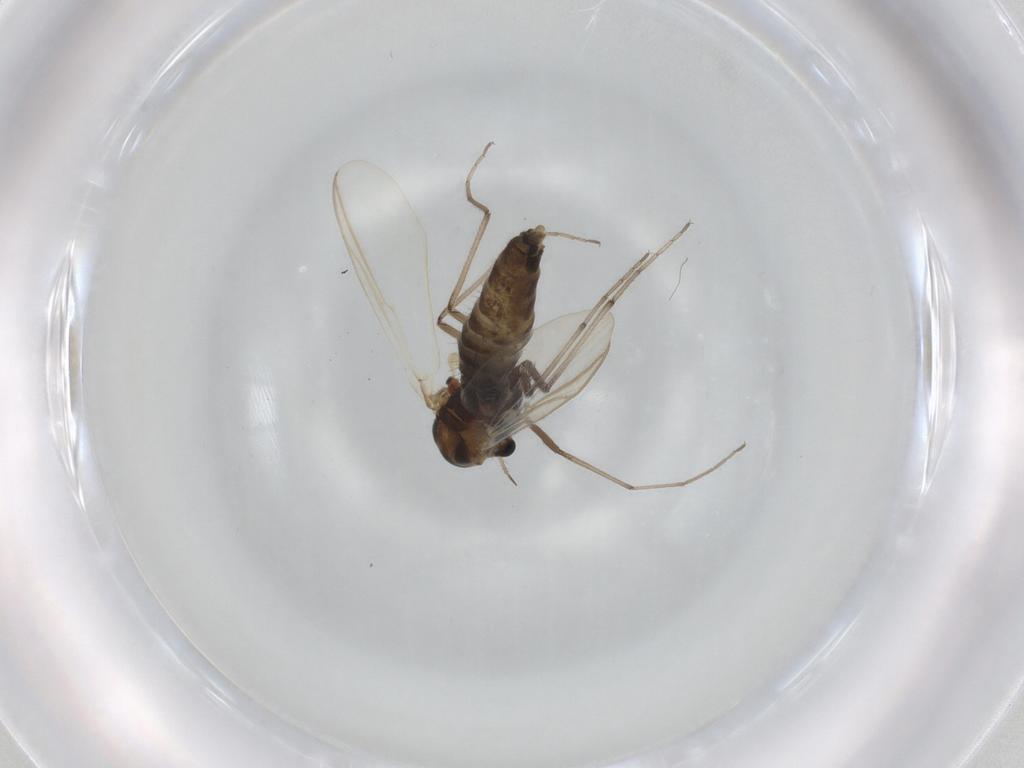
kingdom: Animalia
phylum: Arthropoda
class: Insecta
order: Diptera
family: Chironomidae
